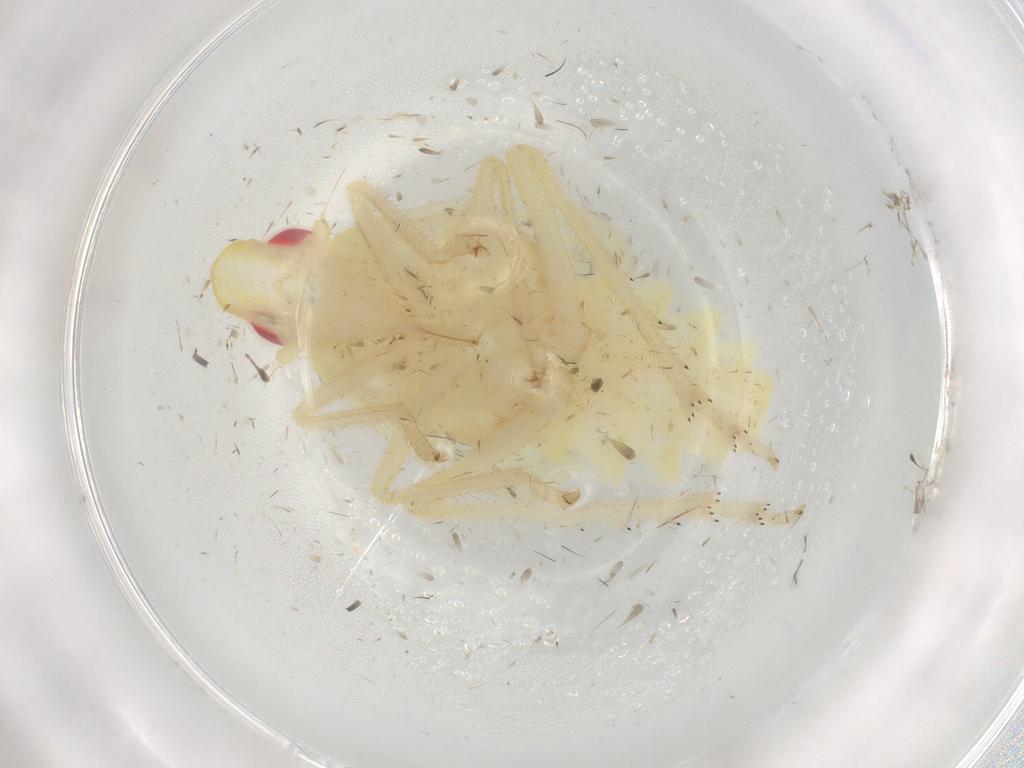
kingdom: Animalia
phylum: Arthropoda
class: Insecta
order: Hemiptera
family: Tropiduchidae
